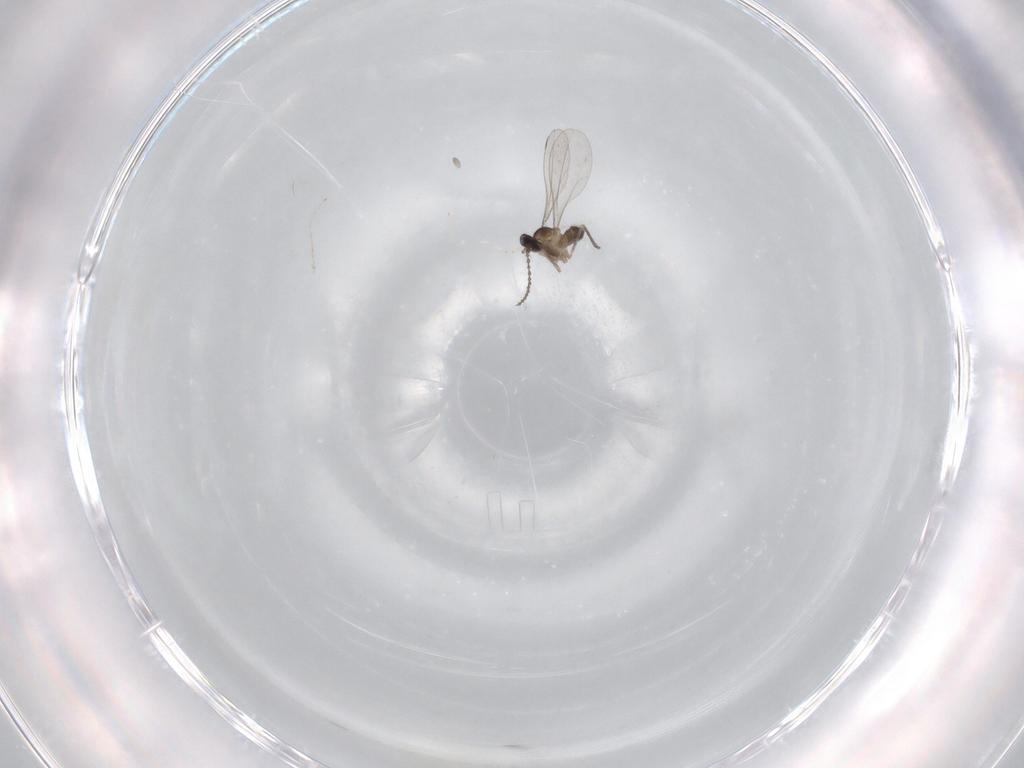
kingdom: Animalia
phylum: Arthropoda
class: Insecta
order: Diptera
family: Cecidomyiidae
